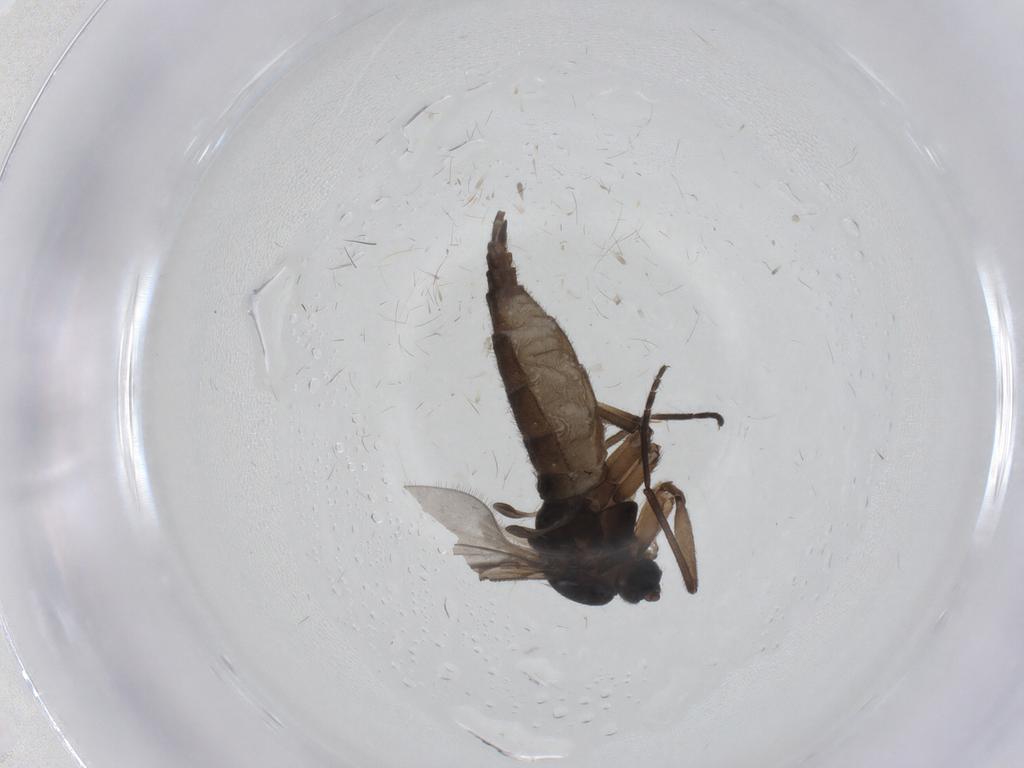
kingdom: Animalia
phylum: Arthropoda
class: Insecta
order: Diptera
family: Sciaridae
